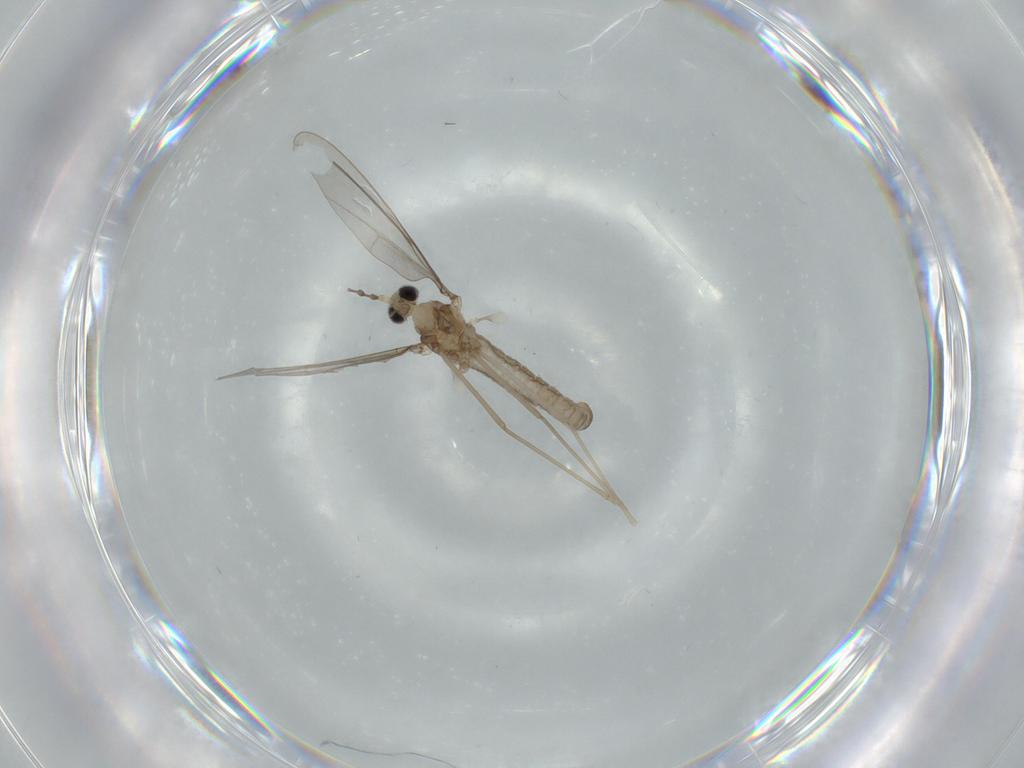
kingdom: Animalia
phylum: Arthropoda
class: Insecta
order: Diptera
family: Cecidomyiidae
